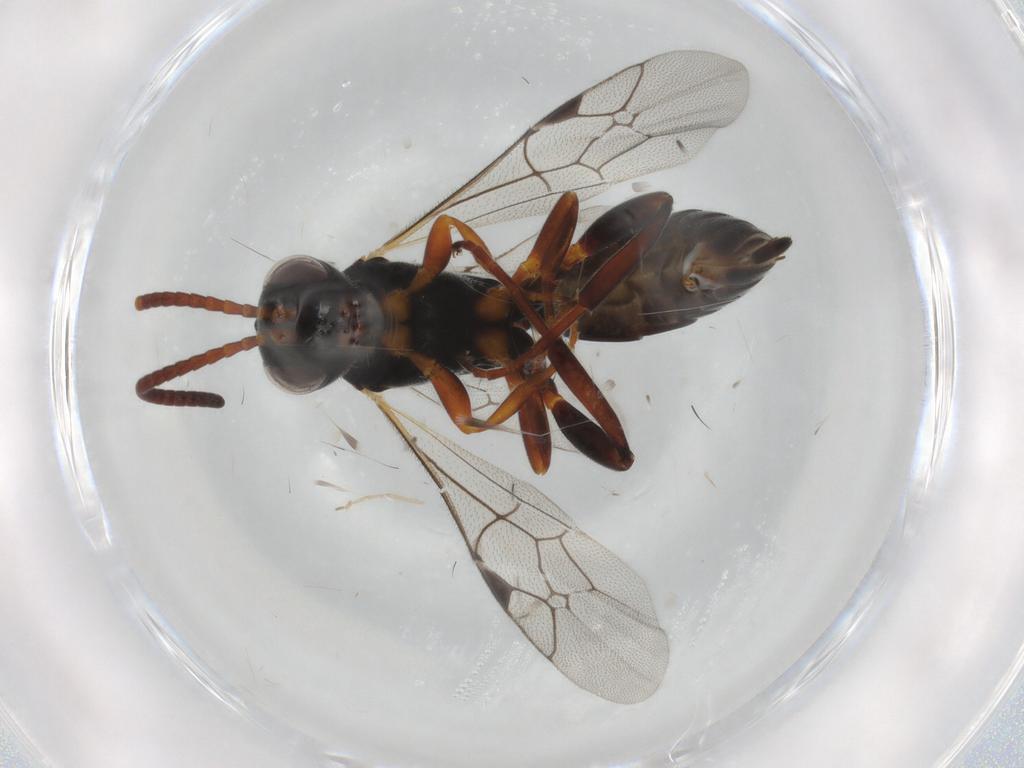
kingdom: Animalia
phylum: Arthropoda
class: Insecta
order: Hymenoptera
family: Ichneumonidae
